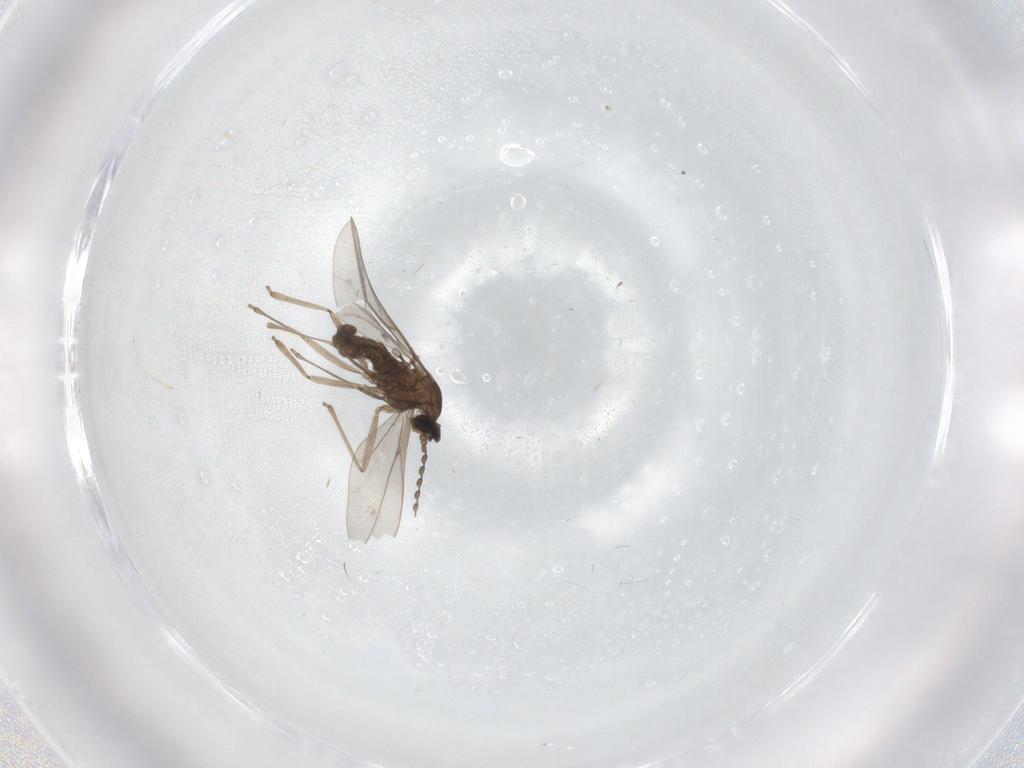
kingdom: Animalia
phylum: Arthropoda
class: Insecta
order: Diptera
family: Cecidomyiidae
